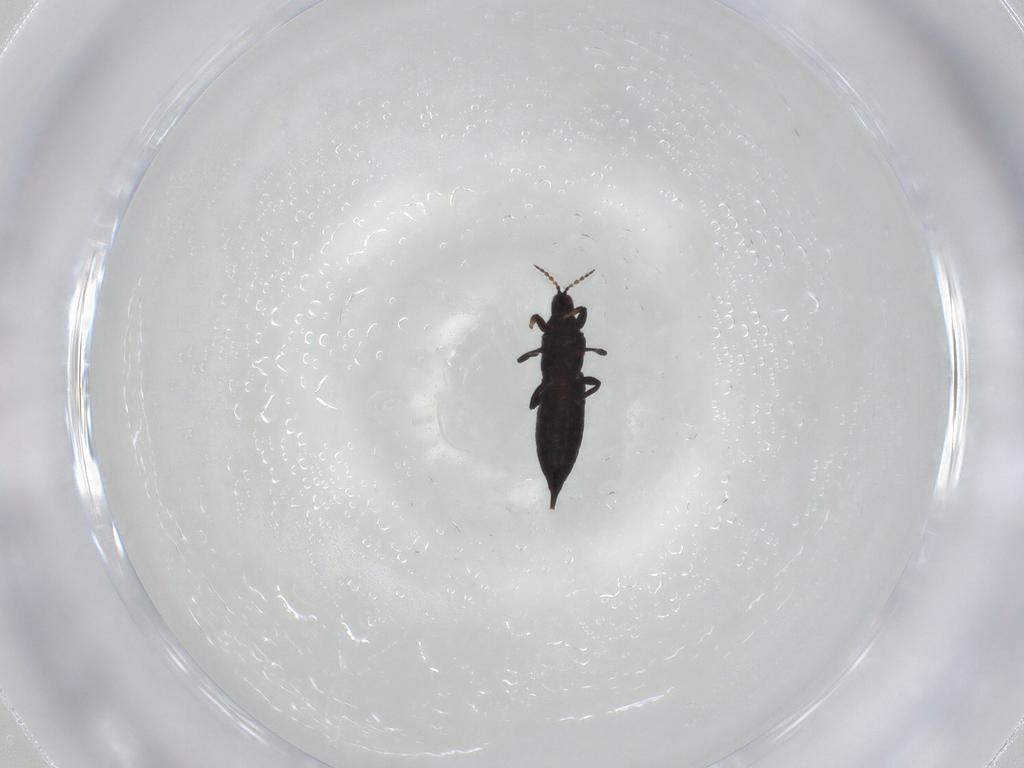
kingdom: Animalia
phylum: Arthropoda
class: Insecta
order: Thysanoptera
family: Phlaeothripidae
